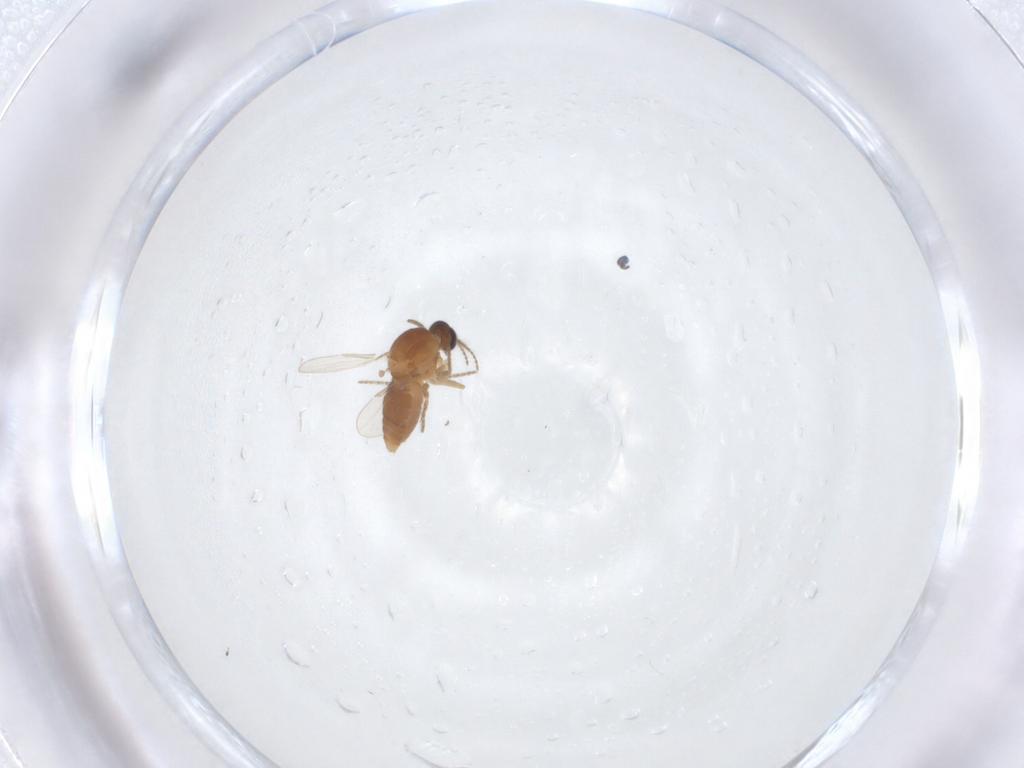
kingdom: Animalia
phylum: Arthropoda
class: Insecta
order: Diptera
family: Ceratopogonidae
